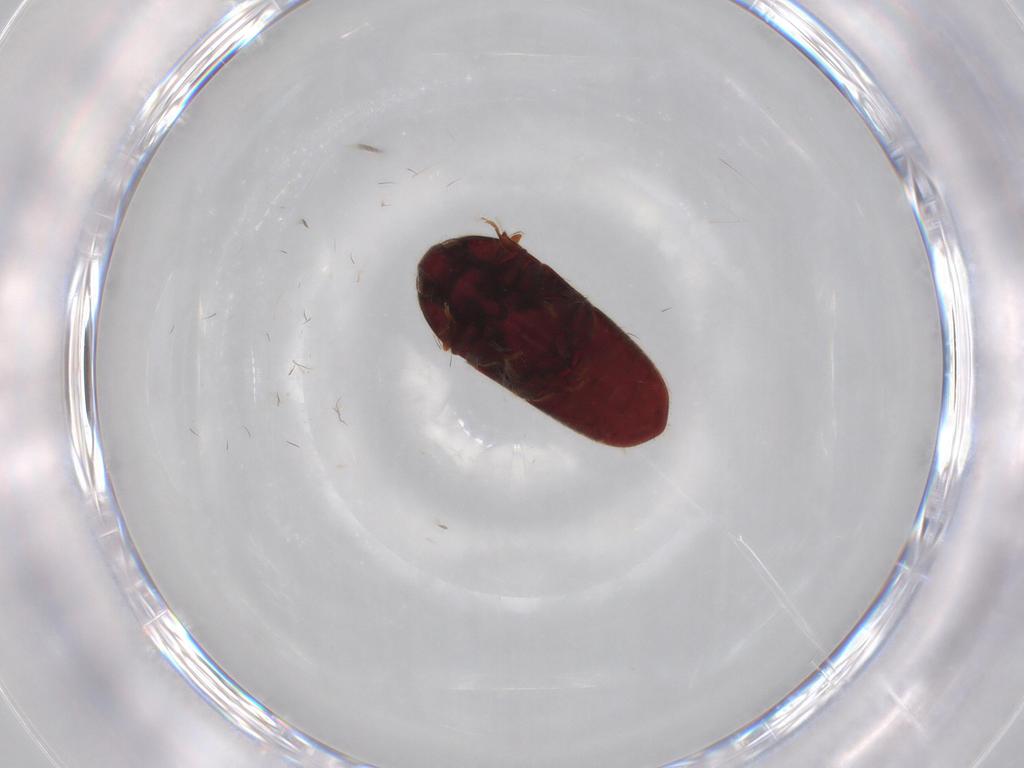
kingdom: Animalia
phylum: Arthropoda
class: Insecta
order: Coleoptera
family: Throscidae
